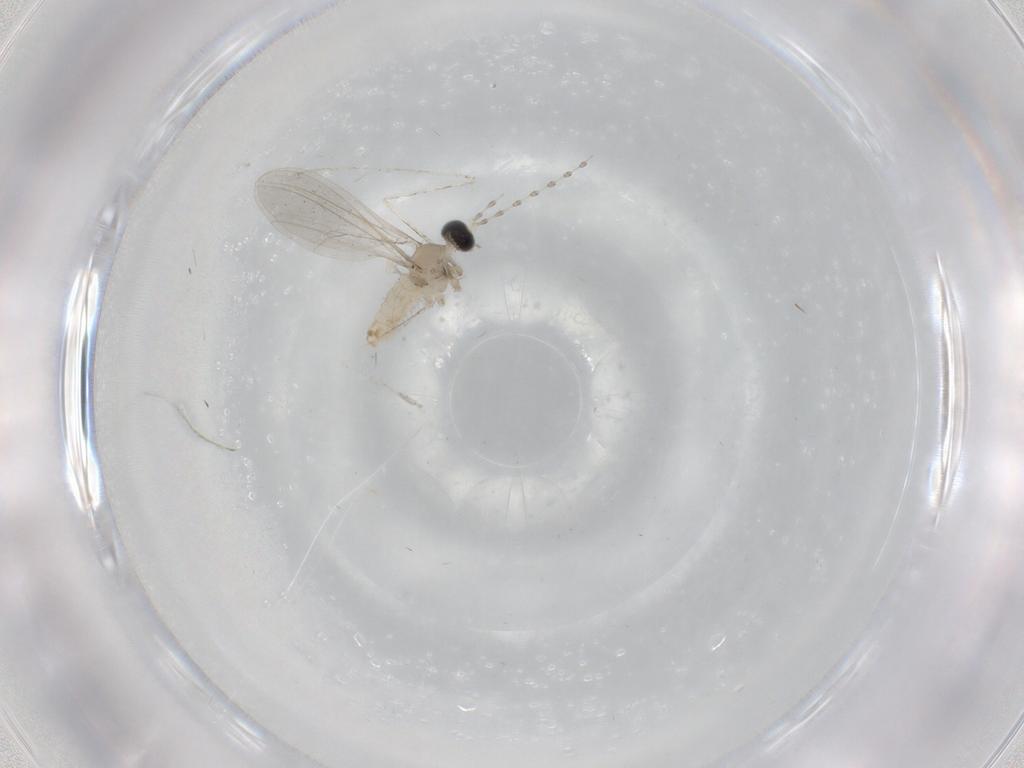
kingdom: Animalia
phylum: Arthropoda
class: Insecta
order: Diptera
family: Cecidomyiidae
